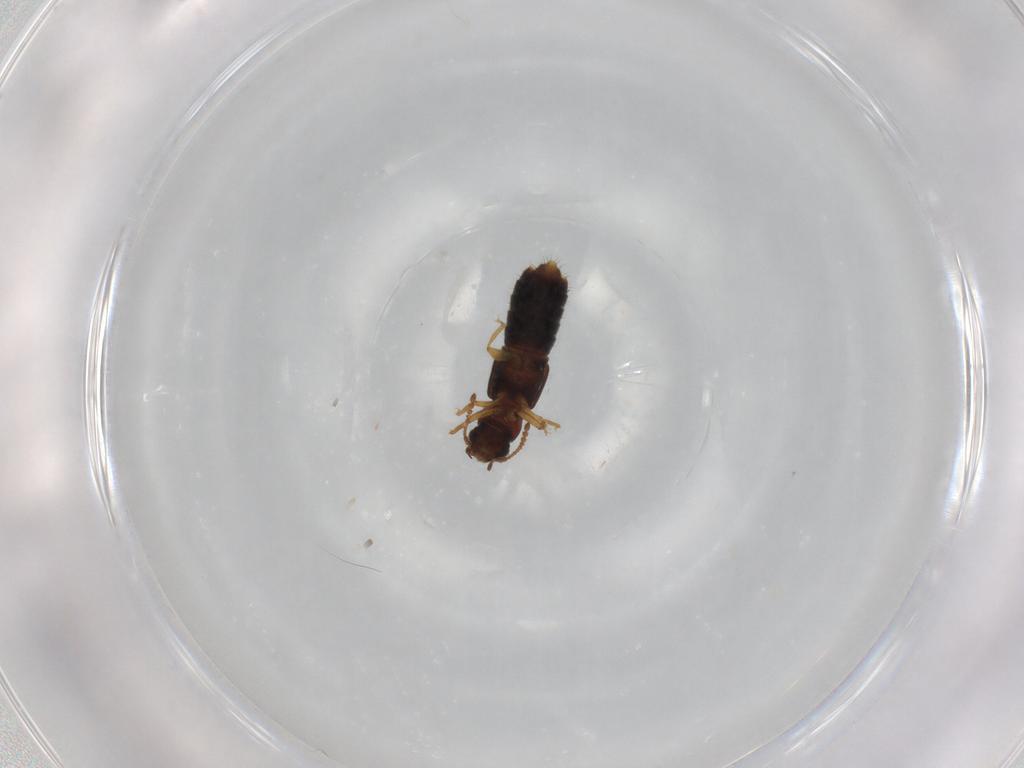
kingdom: Animalia
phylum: Arthropoda
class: Insecta
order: Coleoptera
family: Staphylinidae
